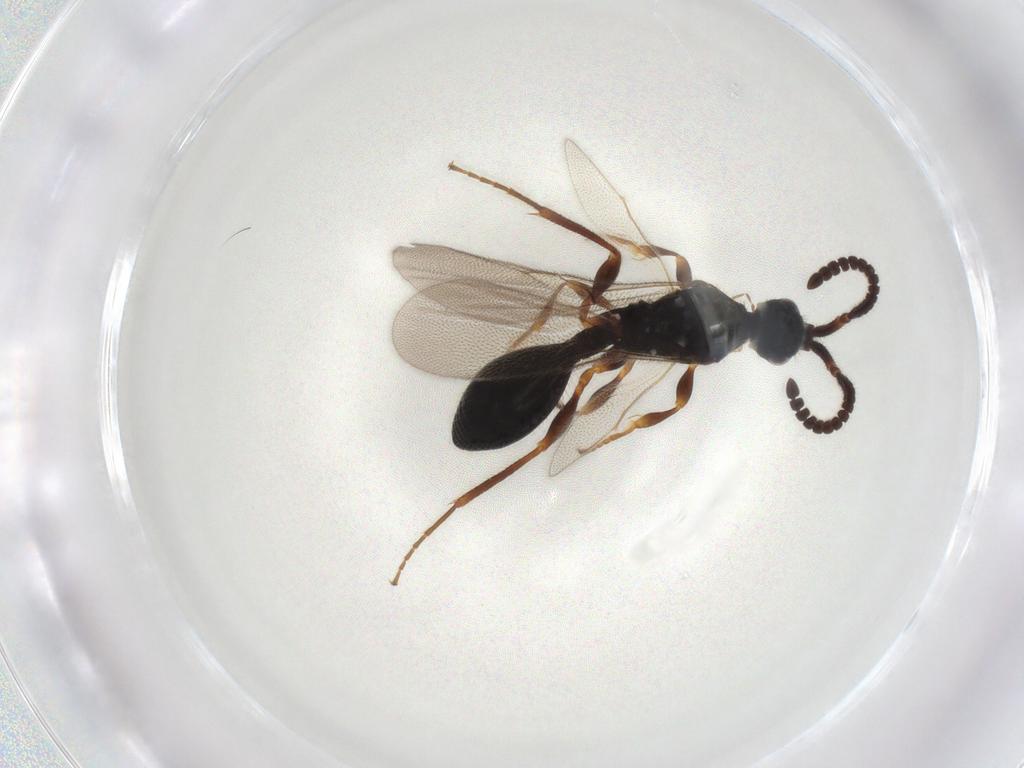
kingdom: Animalia
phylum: Arthropoda
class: Insecta
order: Hymenoptera
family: Diapriidae
